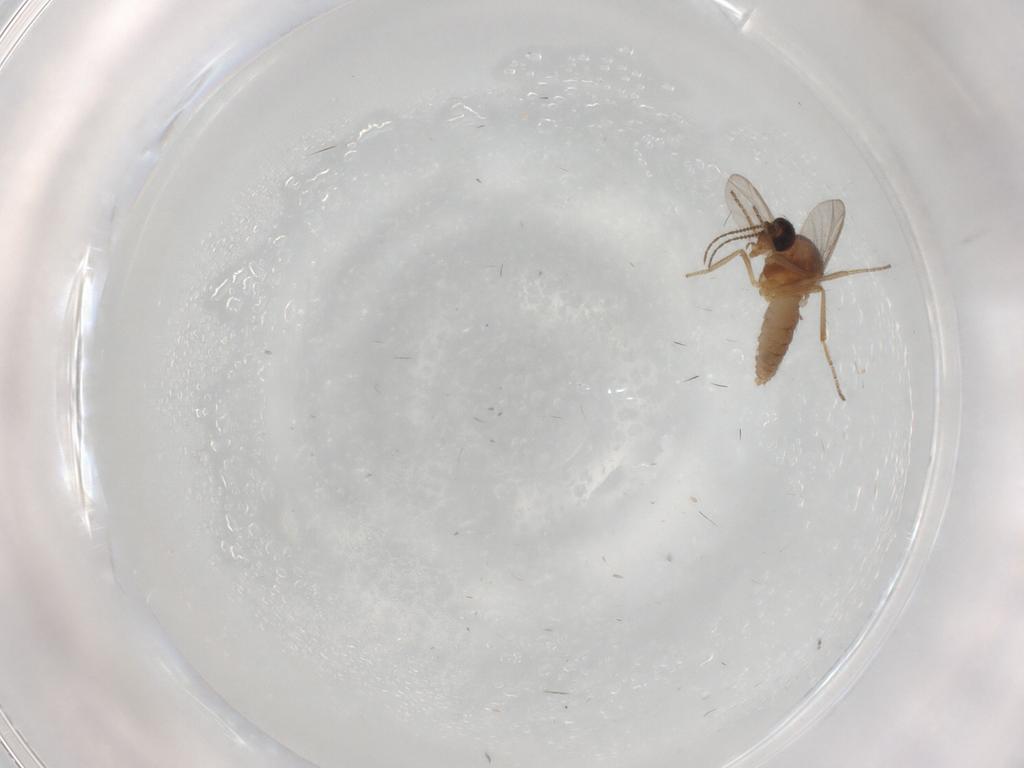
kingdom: Animalia
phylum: Arthropoda
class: Insecta
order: Diptera
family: Ceratopogonidae
